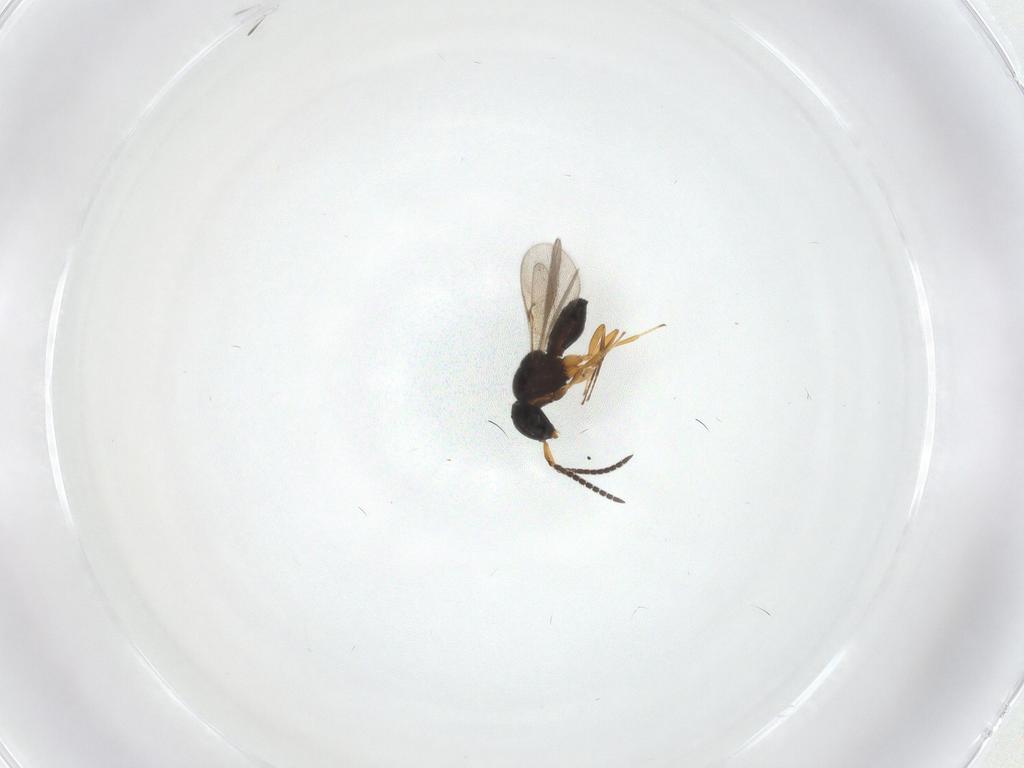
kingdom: Animalia
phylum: Arthropoda
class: Insecta
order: Hymenoptera
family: Scelionidae
